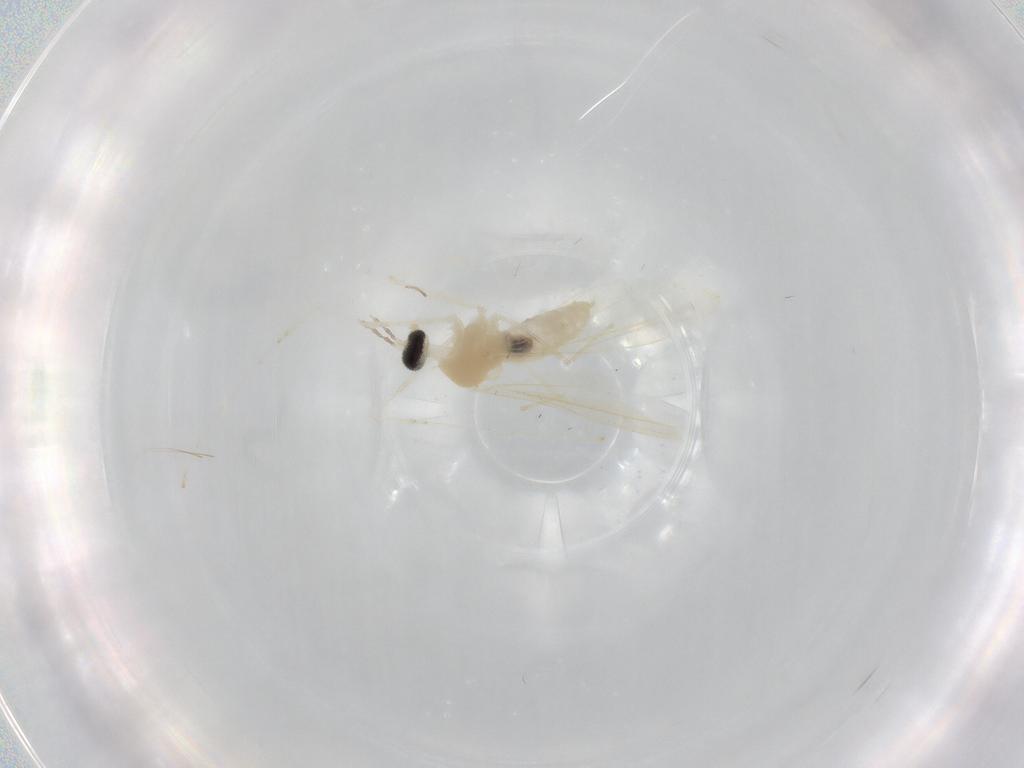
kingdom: Animalia
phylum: Arthropoda
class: Insecta
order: Diptera
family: Cecidomyiidae
